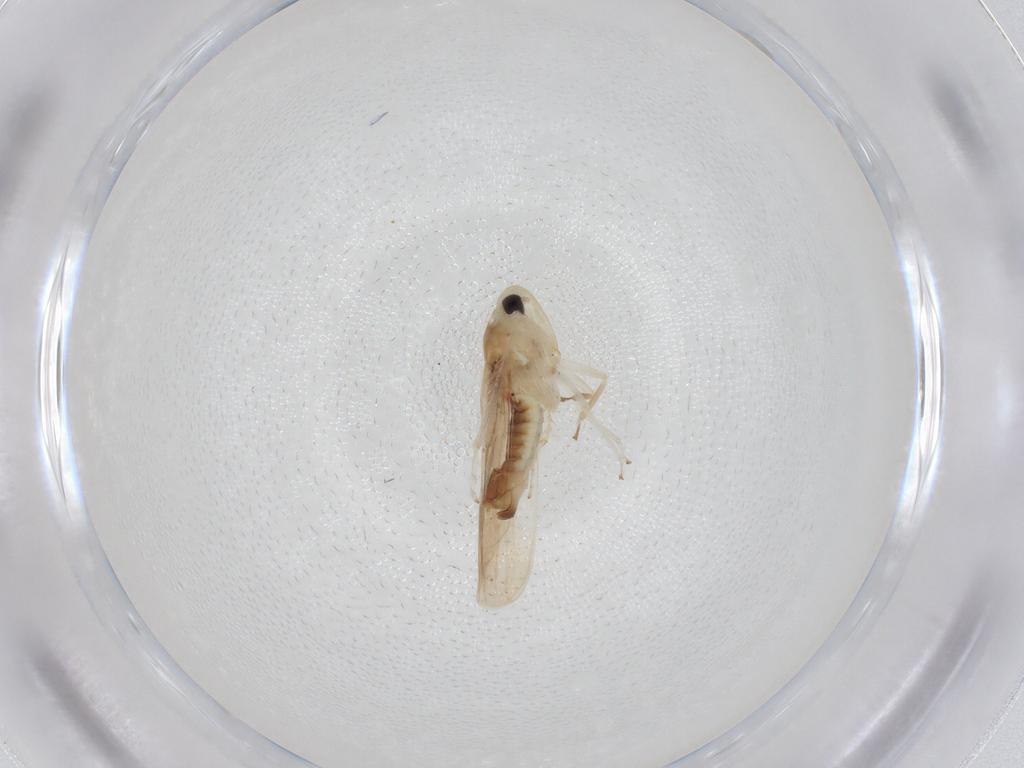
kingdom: Animalia
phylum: Arthropoda
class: Insecta
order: Hemiptera
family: Cicadellidae
